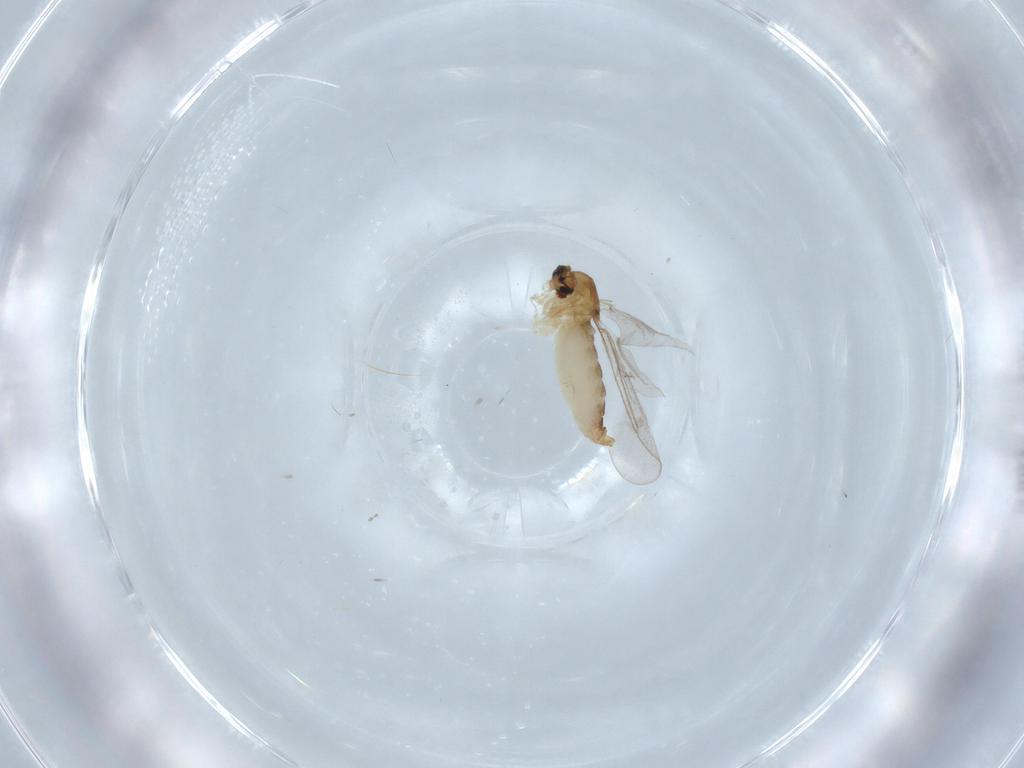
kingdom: Animalia
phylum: Arthropoda
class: Insecta
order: Diptera
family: Cecidomyiidae
